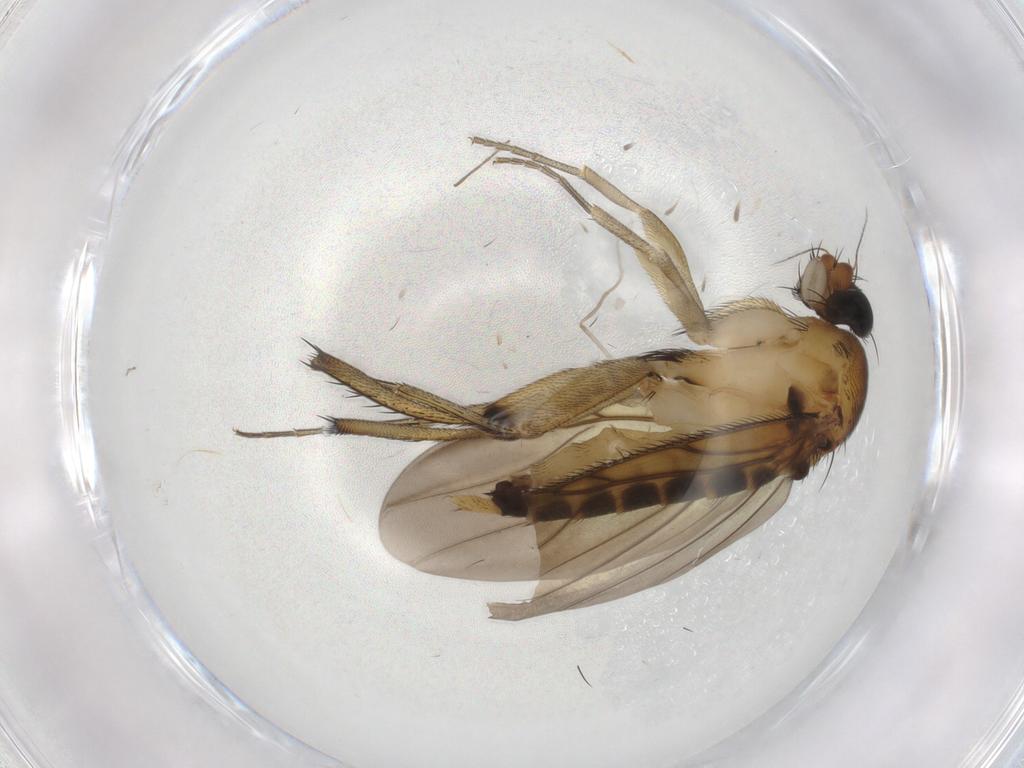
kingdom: Animalia
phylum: Arthropoda
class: Insecta
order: Diptera
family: Phoridae
